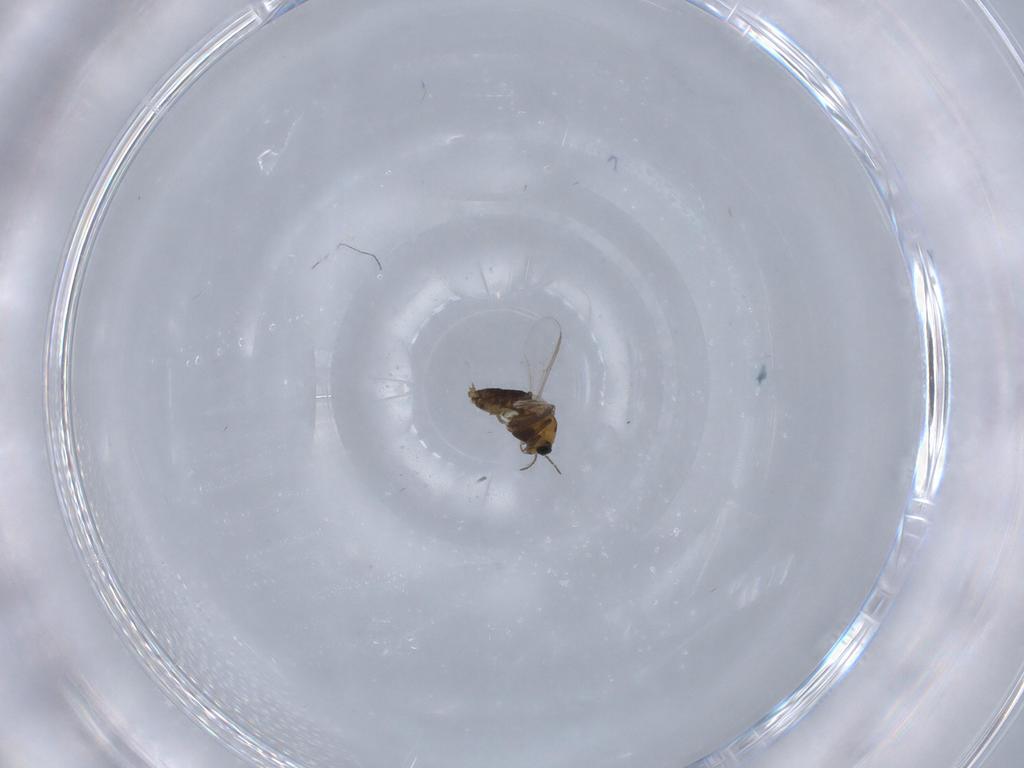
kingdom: Animalia
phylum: Arthropoda
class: Insecta
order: Diptera
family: Chironomidae
